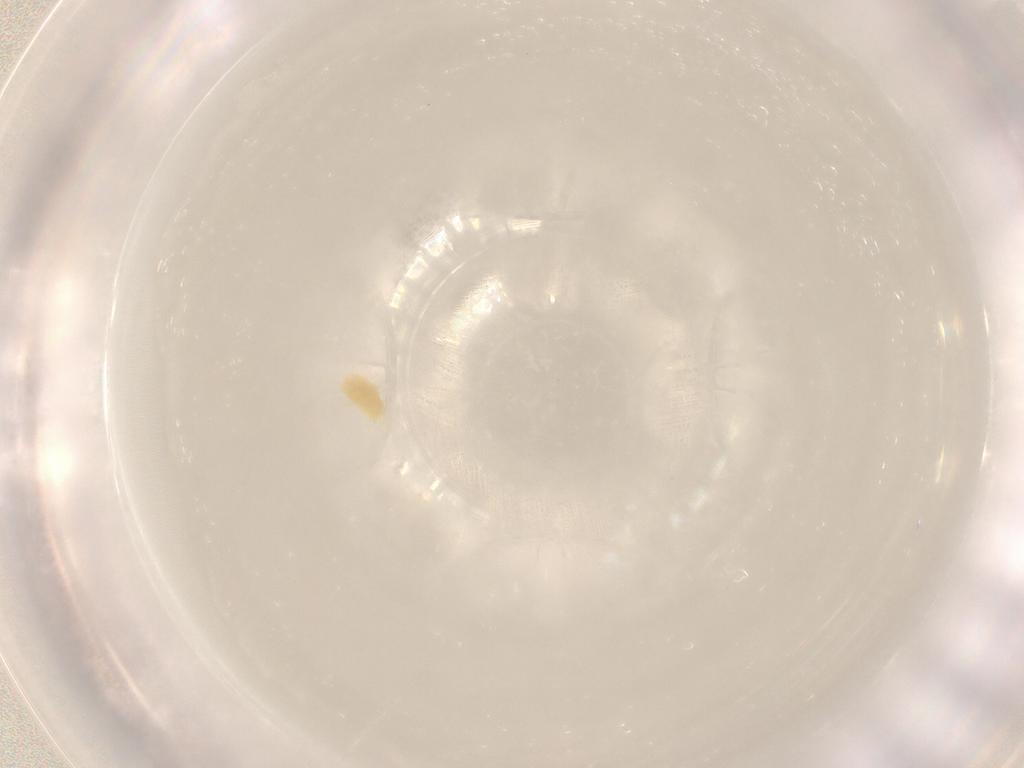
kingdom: Animalia
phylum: Arthropoda
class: Arachnida
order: Trombidiformes
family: Tetranychidae
